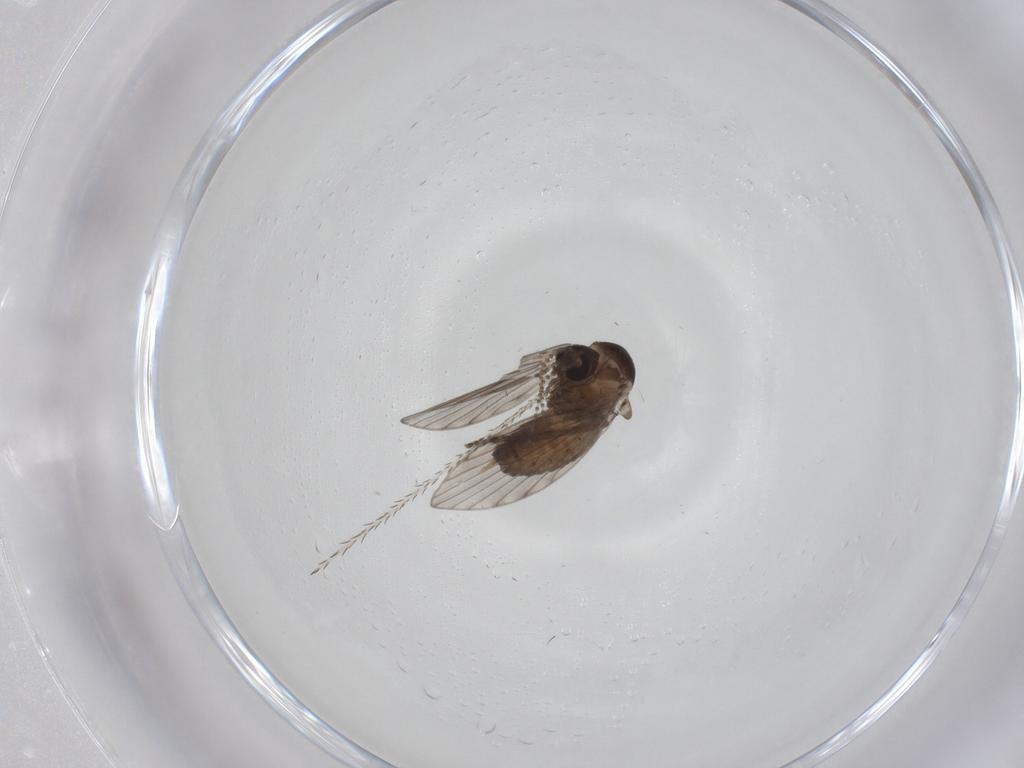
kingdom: Animalia
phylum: Arthropoda
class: Insecta
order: Diptera
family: Psychodidae
